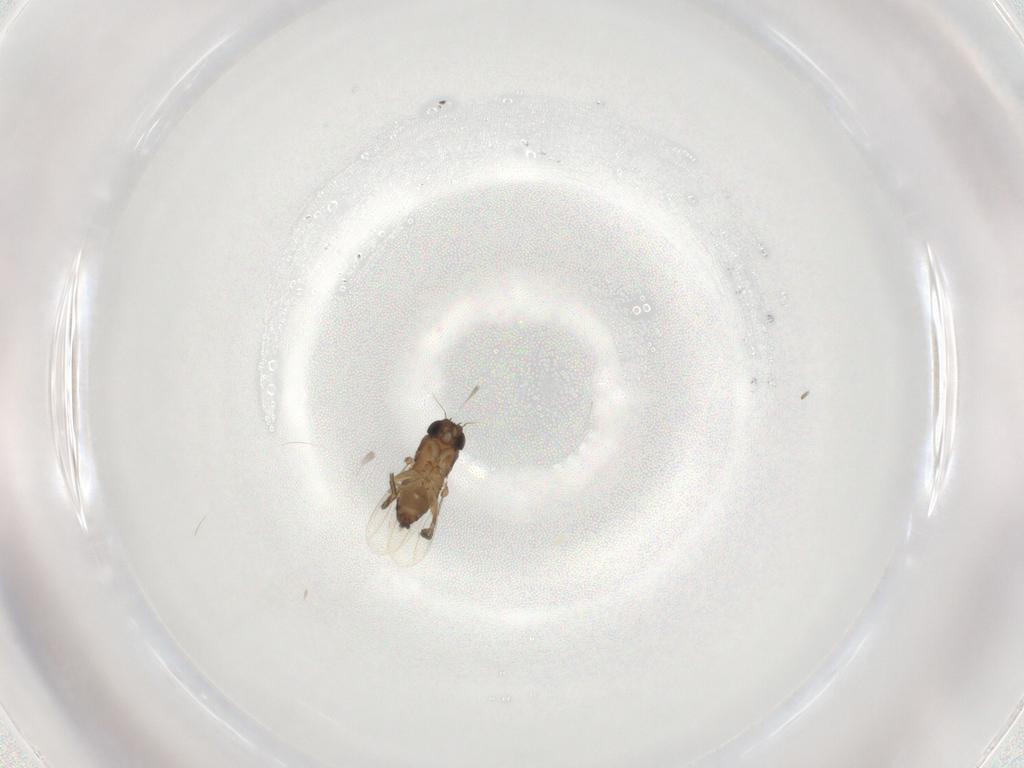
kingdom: Animalia
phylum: Arthropoda
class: Insecta
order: Diptera
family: Phoridae
